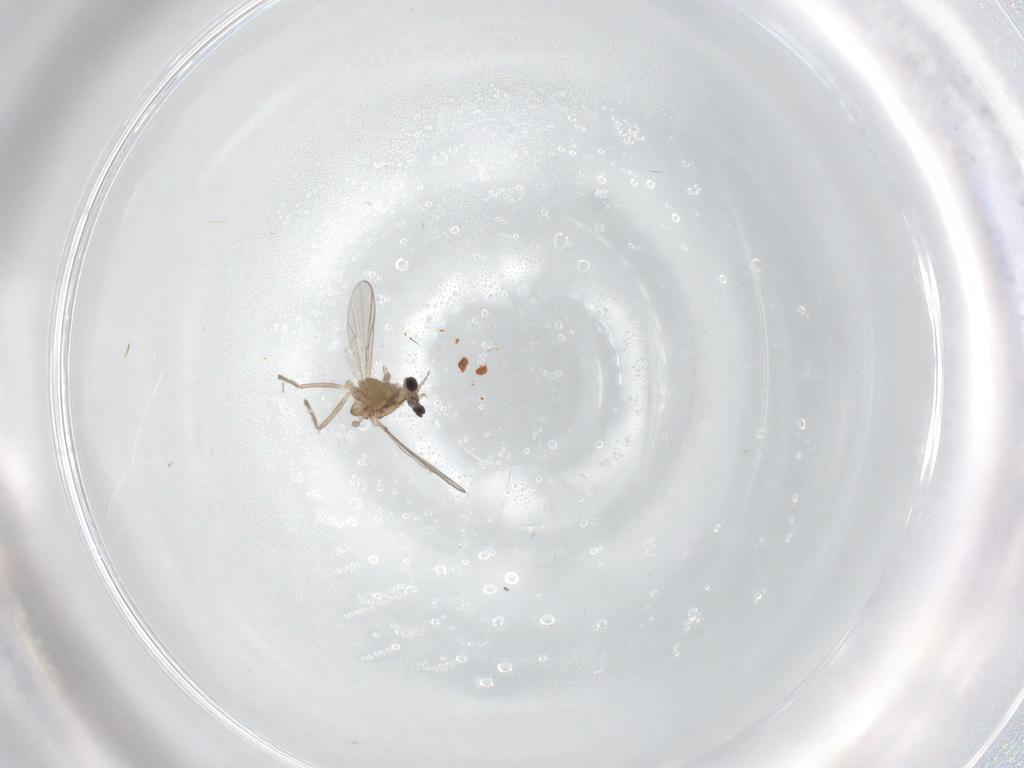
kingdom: Animalia
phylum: Arthropoda
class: Insecta
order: Diptera
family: Chironomidae
